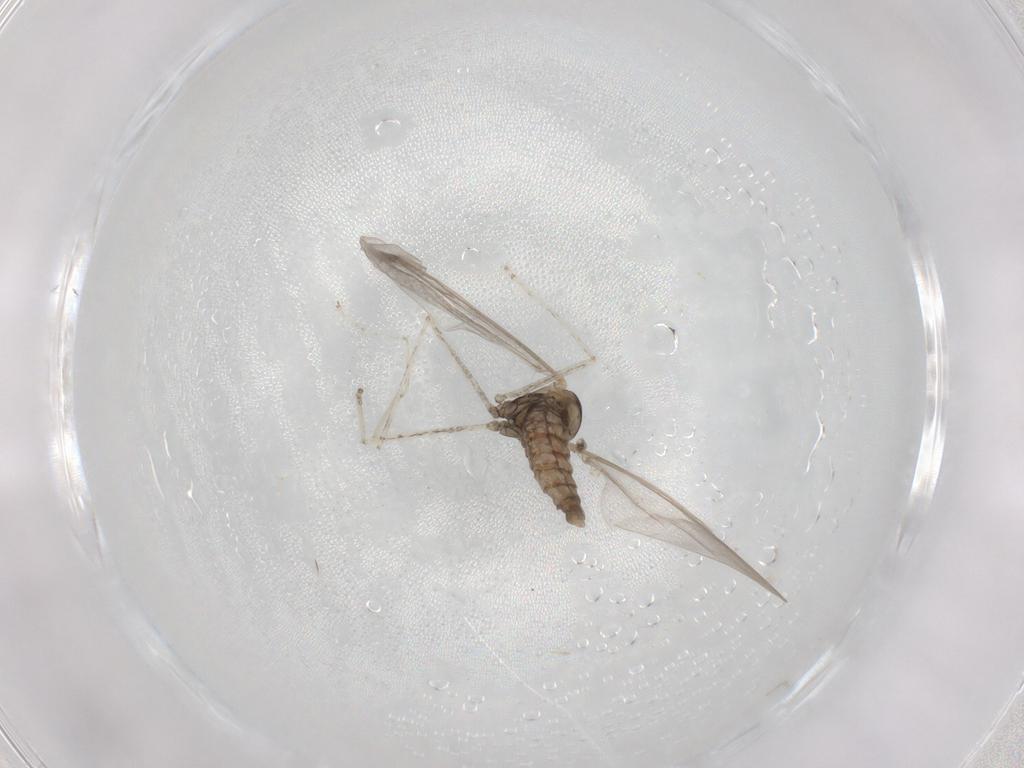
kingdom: Animalia
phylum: Arthropoda
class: Insecta
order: Diptera
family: Cecidomyiidae
